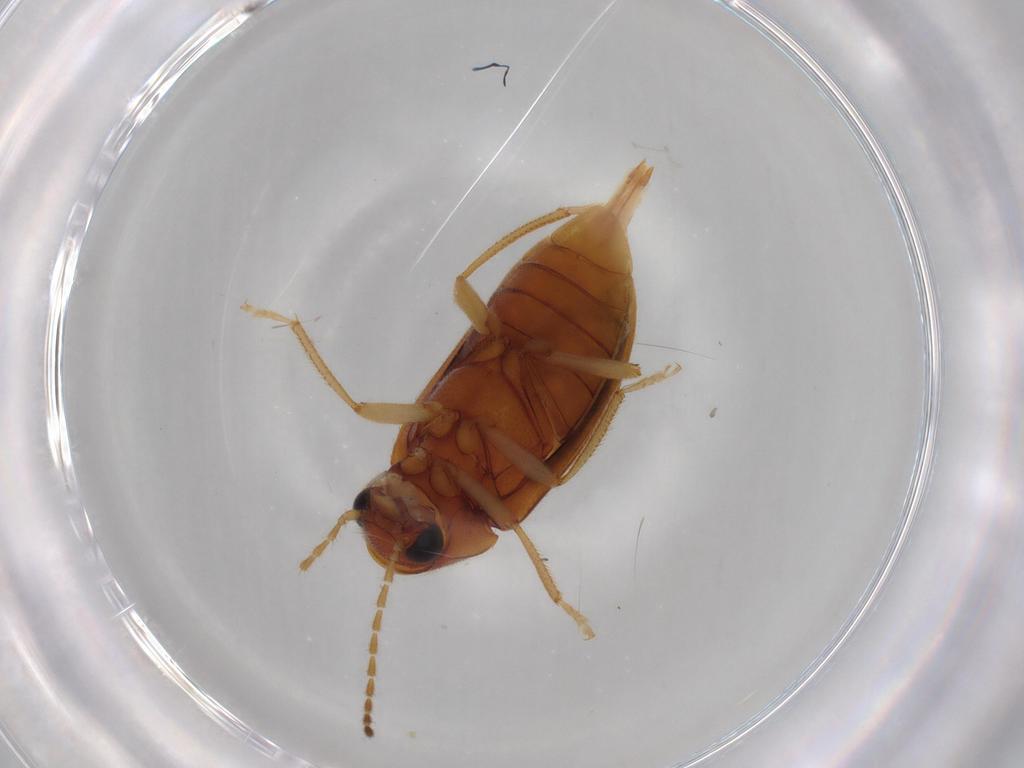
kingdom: Animalia
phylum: Arthropoda
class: Insecta
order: Coleoptera
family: Ptilodactylidae
